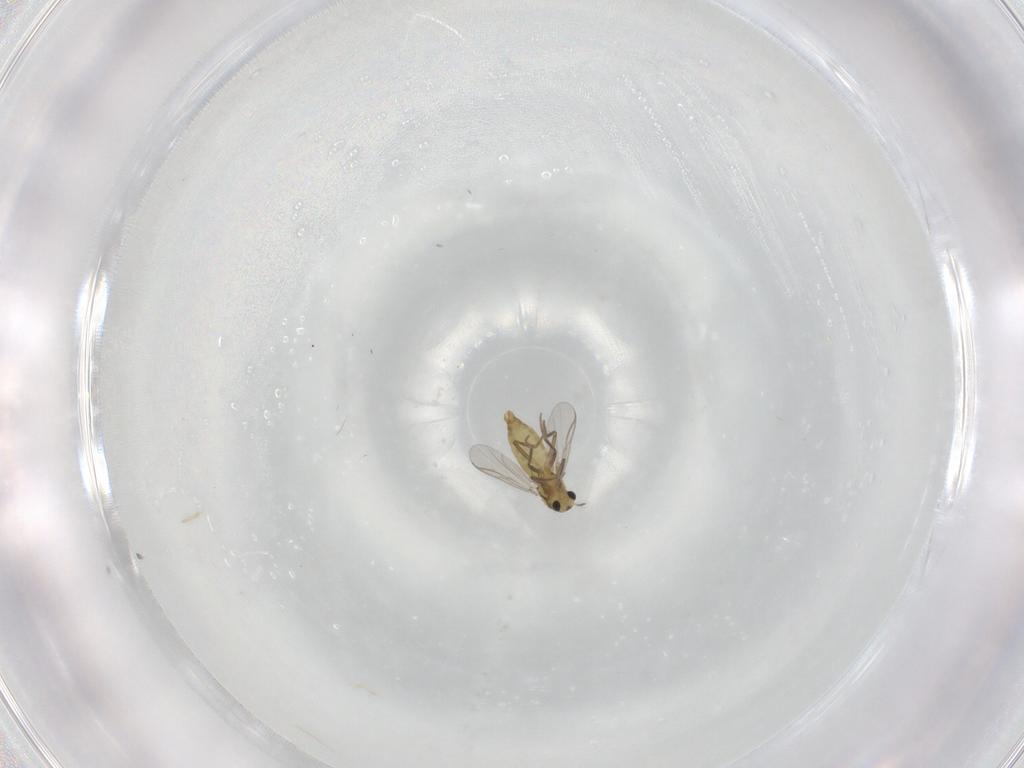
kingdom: Animalia
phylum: Arthropoda
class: Insecta
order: Diptera
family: Chironomidae
